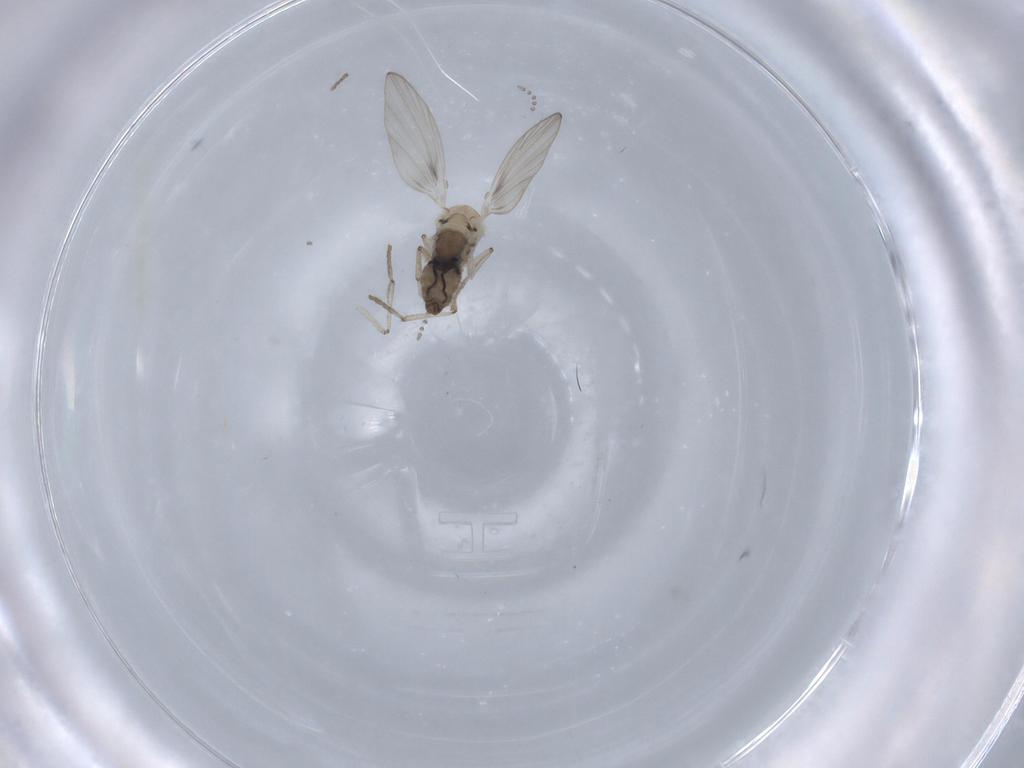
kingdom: Animalia
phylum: Arthropoda
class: Insecta
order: Diptera
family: Psychodidae
